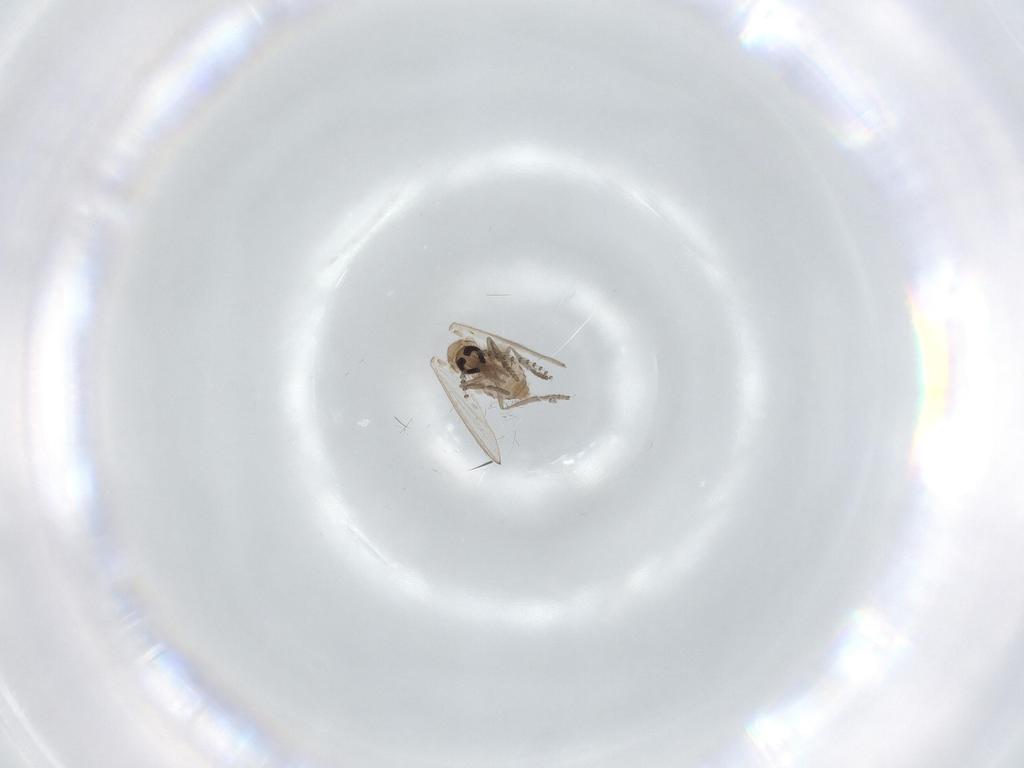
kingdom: Animalia
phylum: Arthropoda
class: Insecta
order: Diptera
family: Psychodidae
